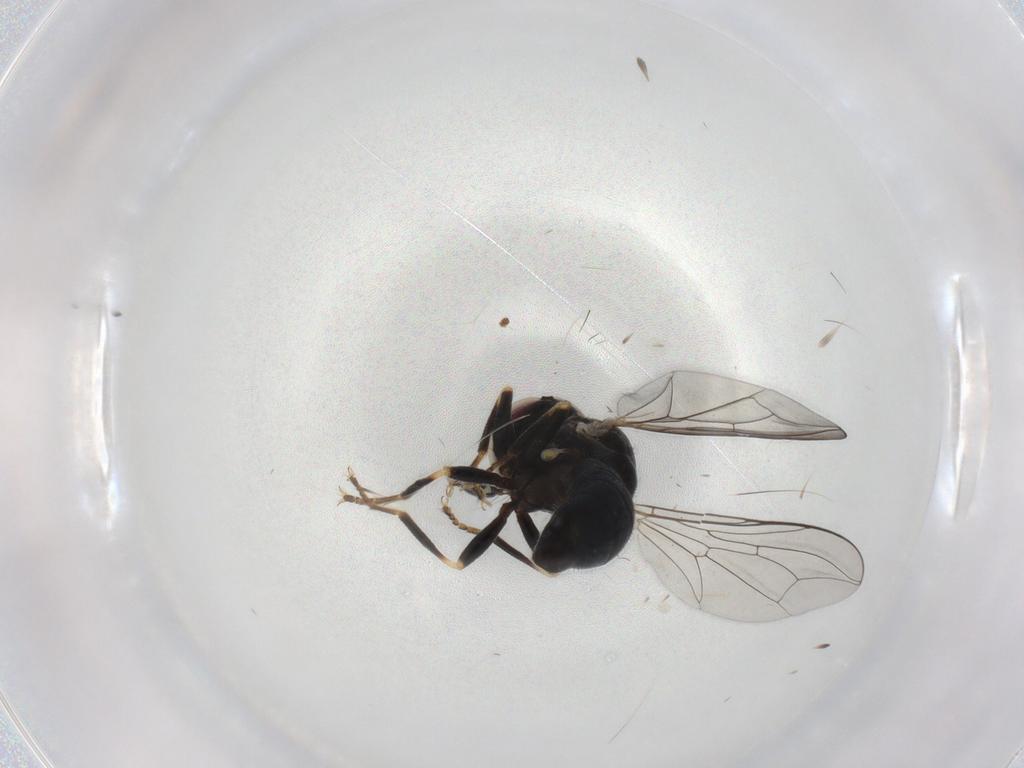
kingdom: Animalia
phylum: Arthropoda
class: Insecta
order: Diptera
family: Pipunculidae
